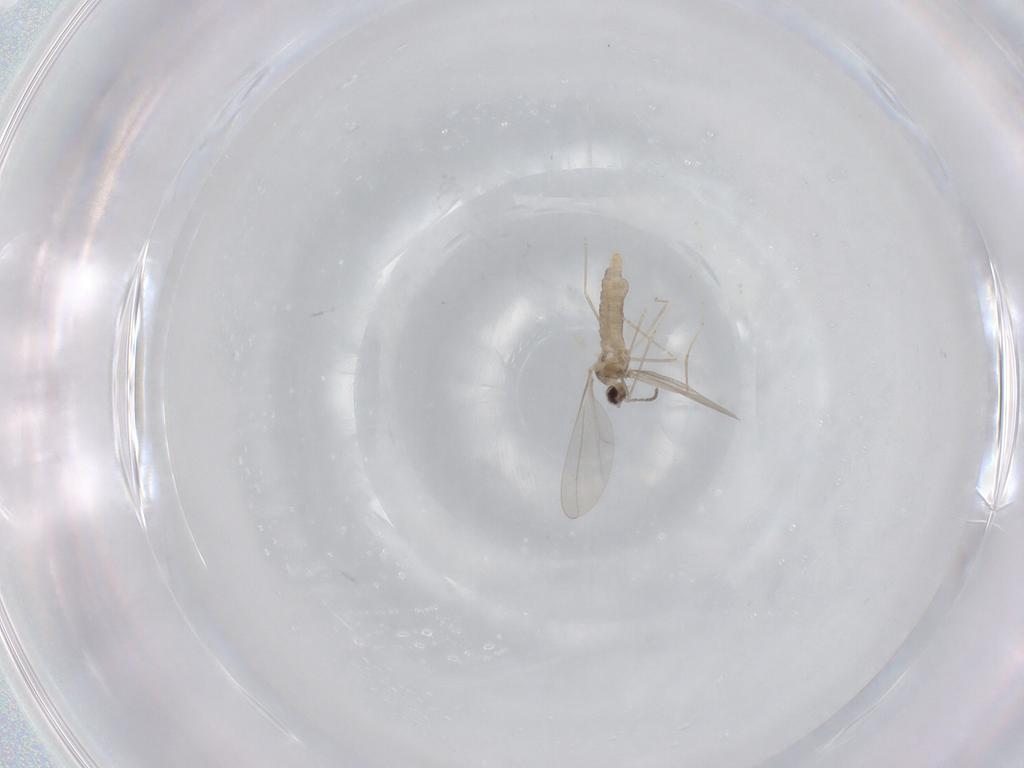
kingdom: Animalia
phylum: Arthropoda
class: Insecta
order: Diptera
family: Cecidomyiidae
